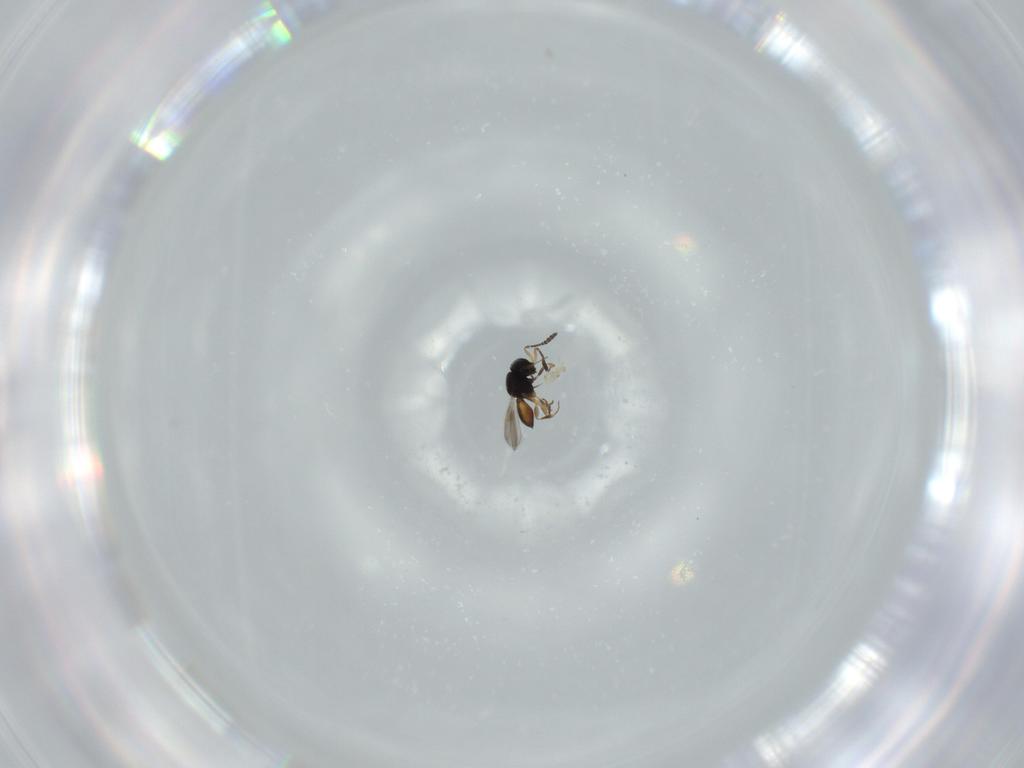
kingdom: Animalia
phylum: Arthropoda
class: Insecta
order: Hymenoptera
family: Scelionidae
